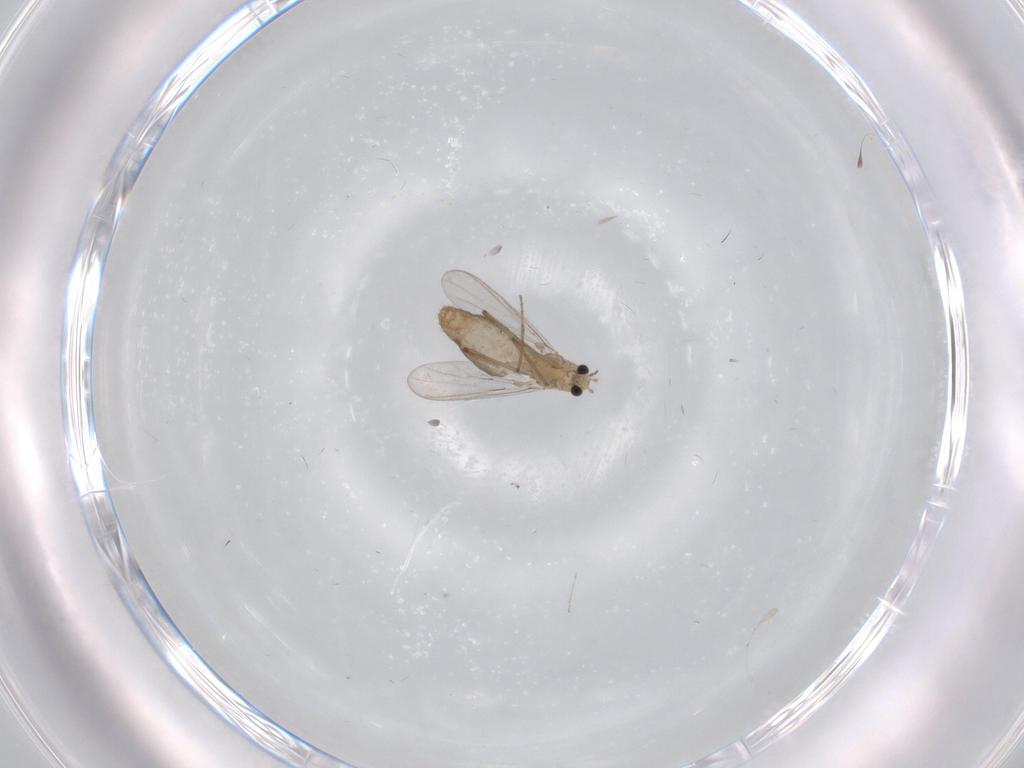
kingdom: Animalia
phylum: Arthropoda
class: Insecta
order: Diptera
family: Chironomidae
